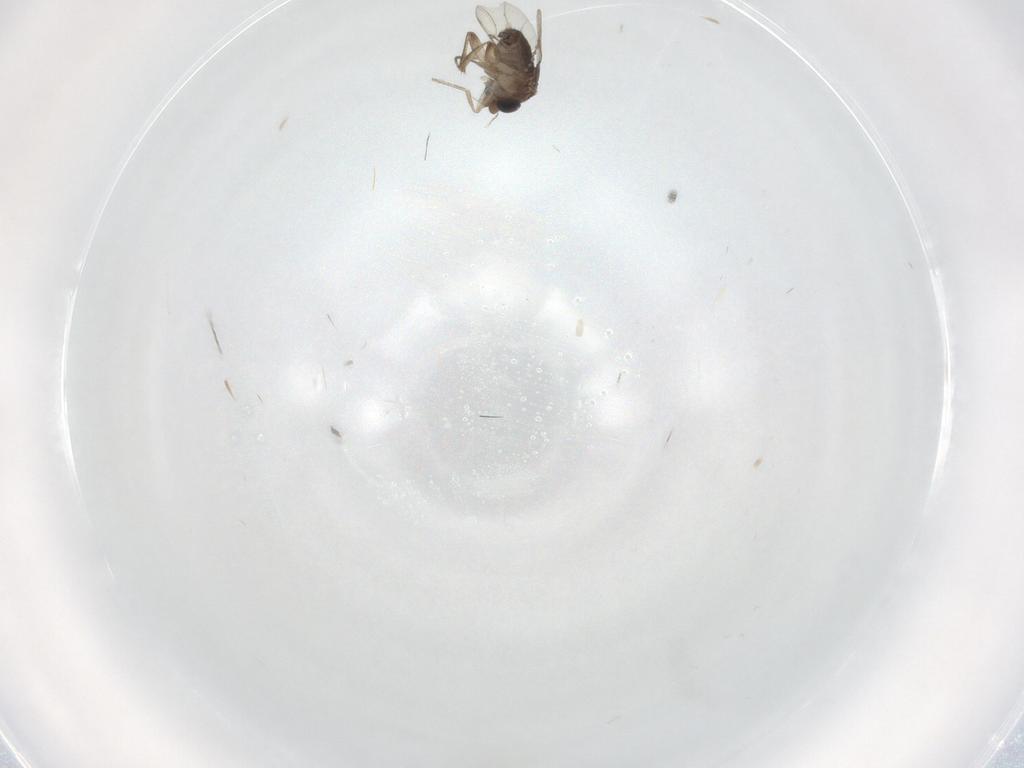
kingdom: Animalia
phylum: Arthropoda
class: Insecta
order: Diptera
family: Phoridae
